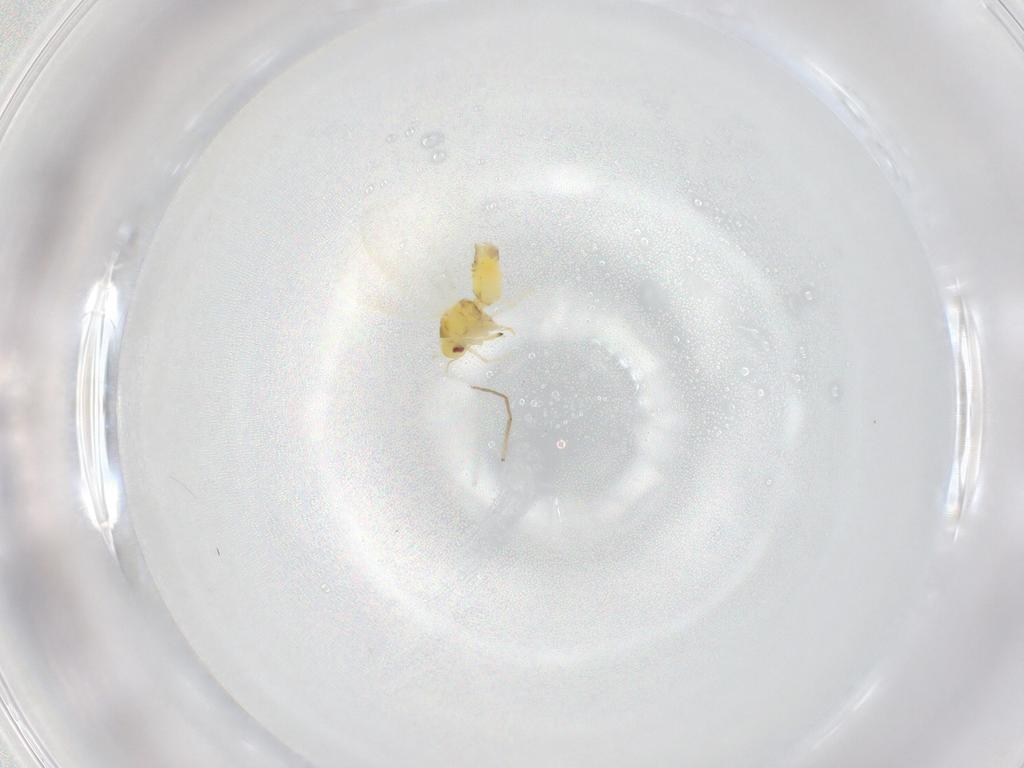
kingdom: Animalia
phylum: Arthropoda
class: Insecta
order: Hemiptera
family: Aleyrodidae
